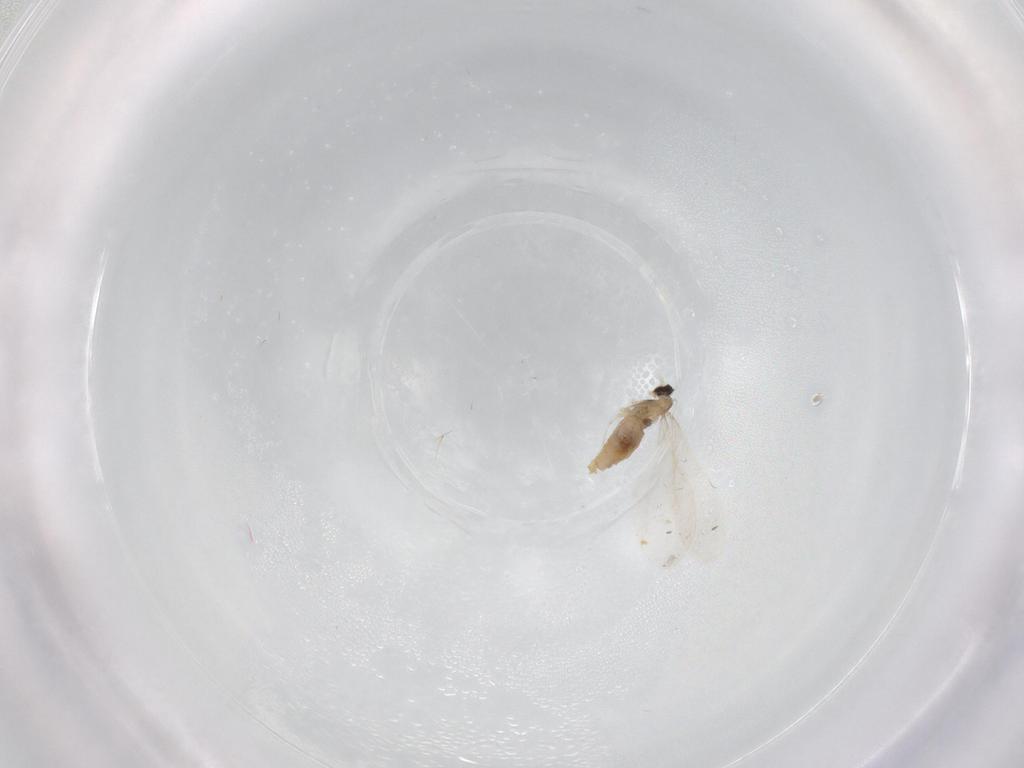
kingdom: Animalia
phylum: Arthropoda
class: Insecta
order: Diptera
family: Cecidomyiidae
